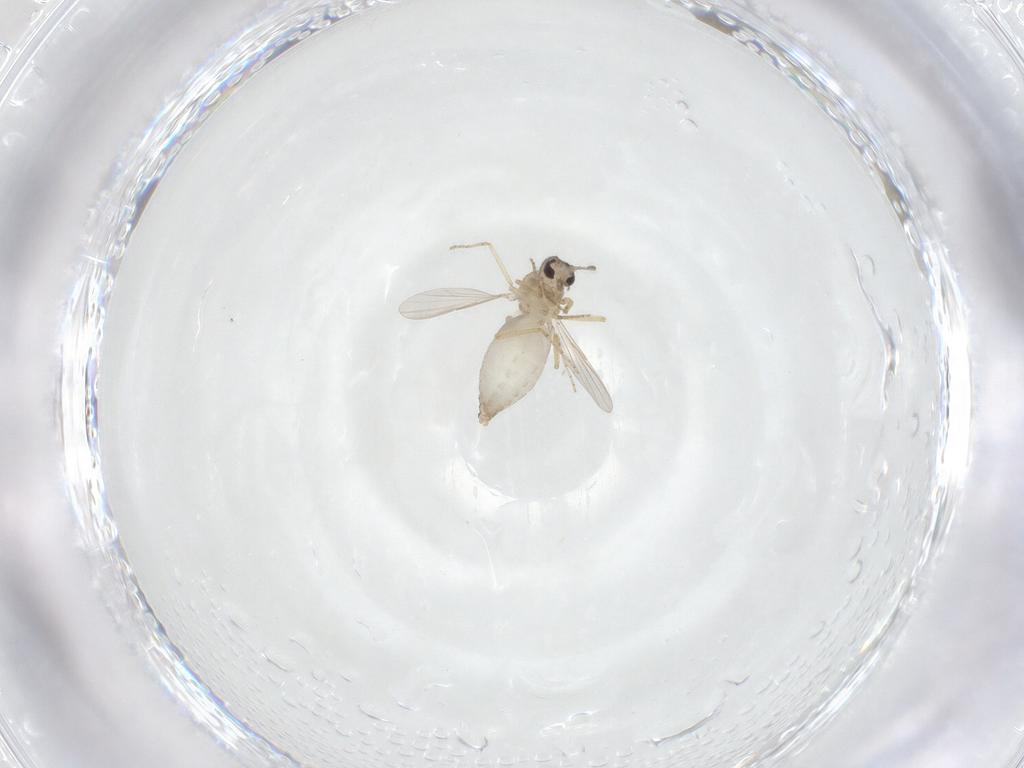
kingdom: Animalia
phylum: Arthropoda
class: Insecta
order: Diptera
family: Ceratopogonidae
